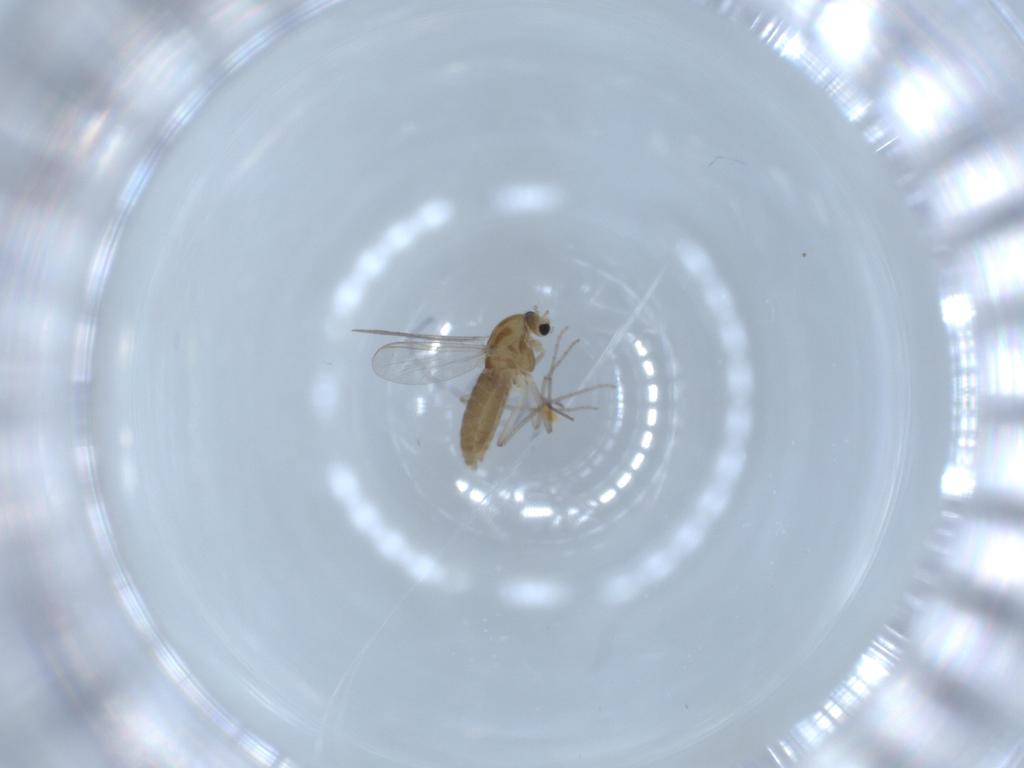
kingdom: Animalia
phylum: Arthropoda
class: Insecta
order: Diptera
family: Chironomidae
